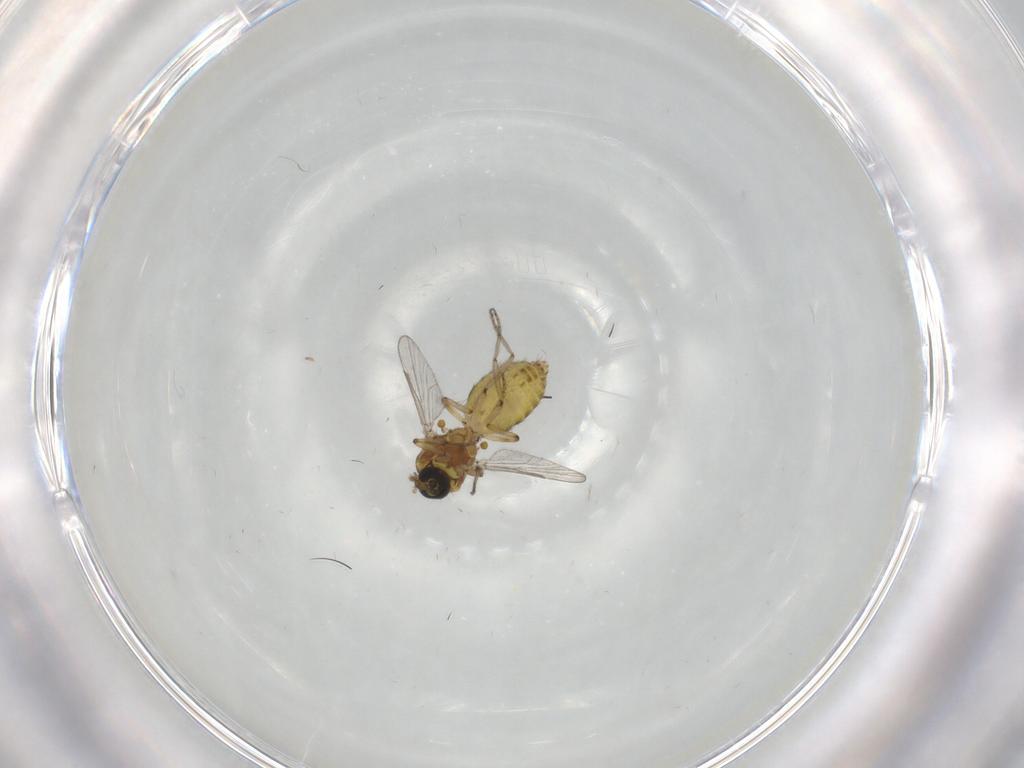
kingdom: Animalia
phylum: Arthropoda
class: Insecta
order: Diptera
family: Ceratopogonidae
